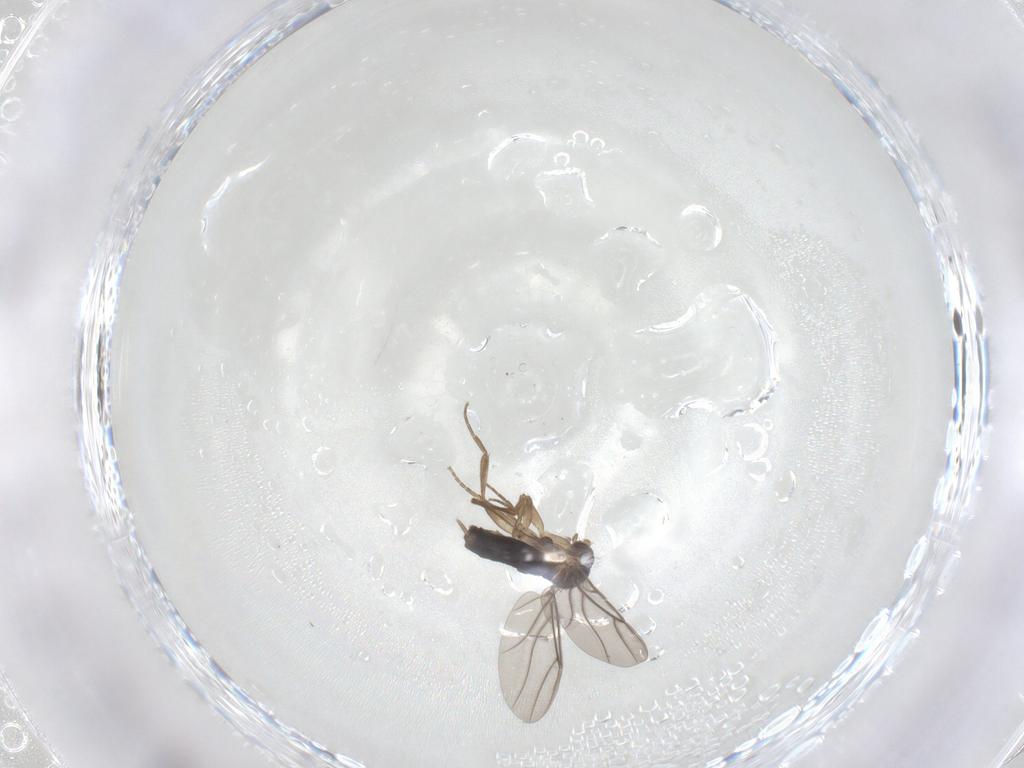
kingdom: Animalia
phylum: Arthropoda
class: Insecta
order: Diptera
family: Phoridae
